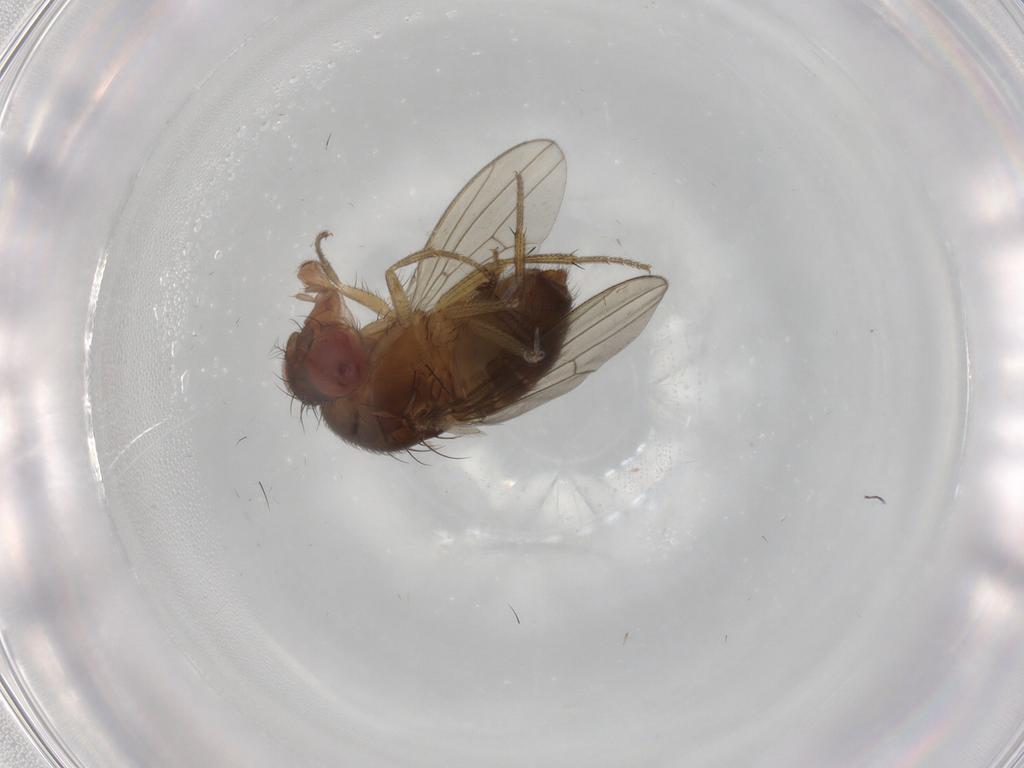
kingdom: Animalia
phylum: Arthropoda
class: Insecta
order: Diptera
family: Drosophilidae
